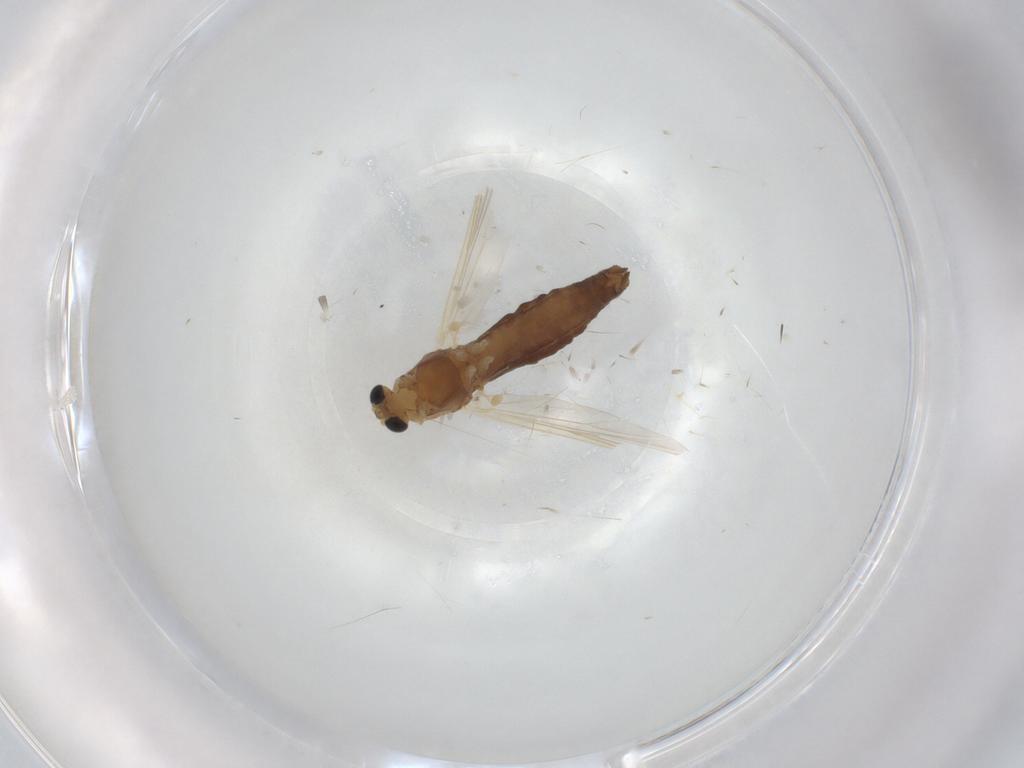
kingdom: Animalia
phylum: Arthropoda
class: Insecta
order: Diptera
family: Chironomidae
